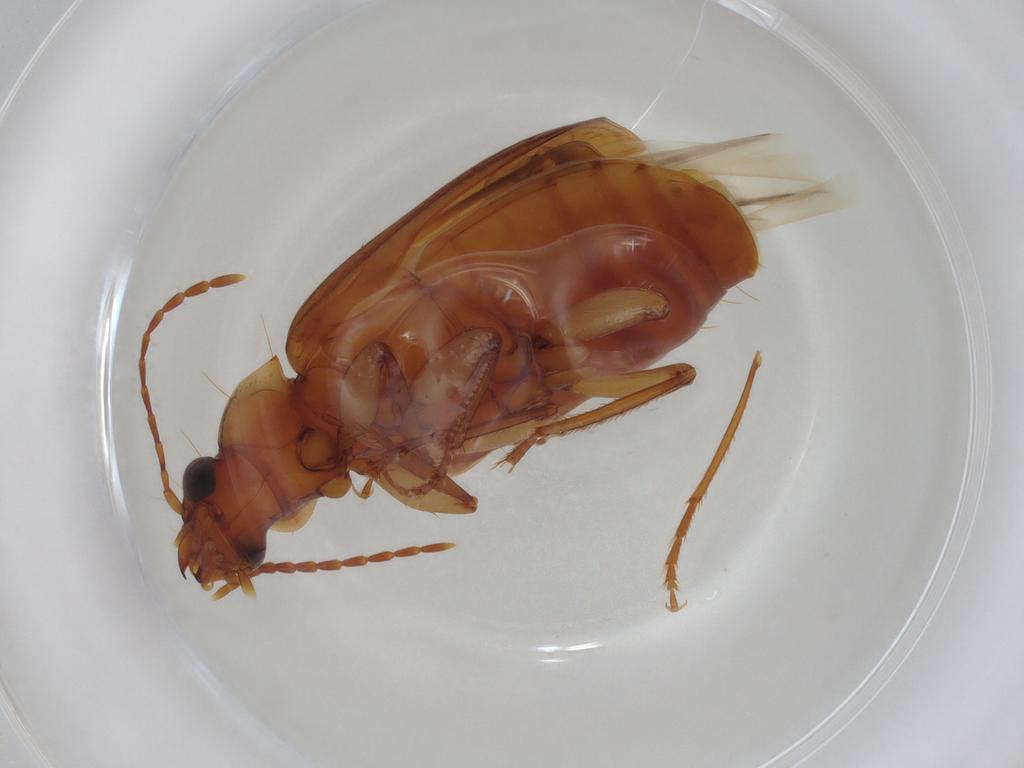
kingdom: Animalia
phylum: Arthropoda
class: Insecta
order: Coleoptera
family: Carabidae
